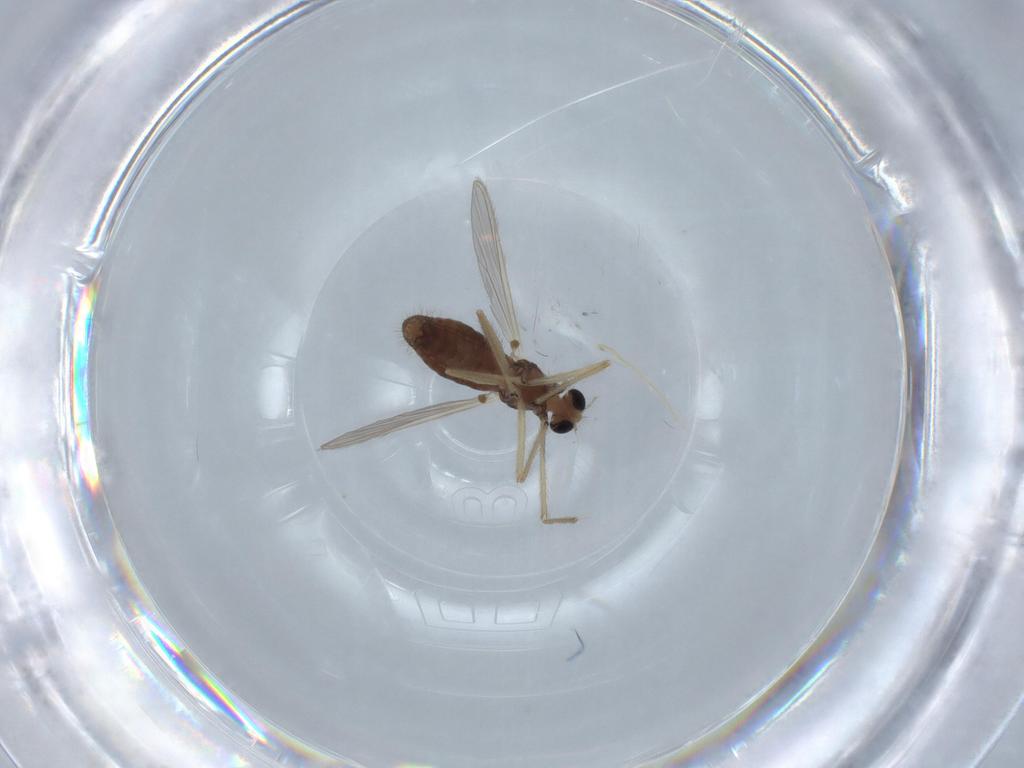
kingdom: Animalia
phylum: Arthropoda
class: Insecta
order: Diptera
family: Chironomidae
